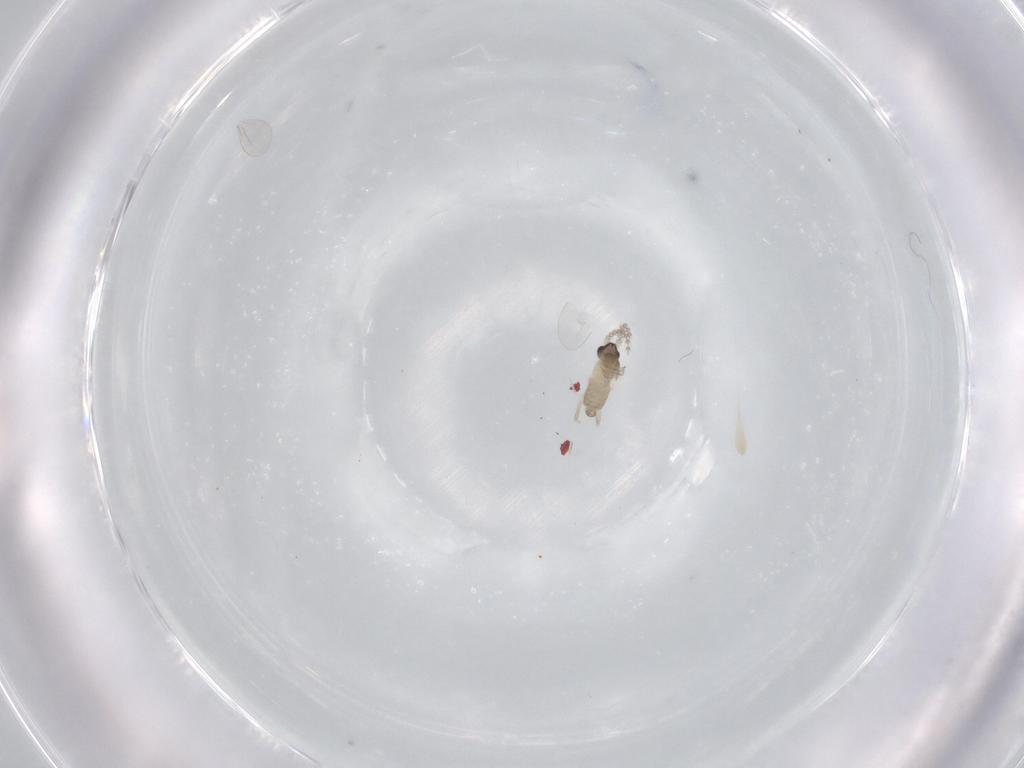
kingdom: Animalia
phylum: Arthropoda
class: Insecta
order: Diptera
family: Cecidomyiidae
